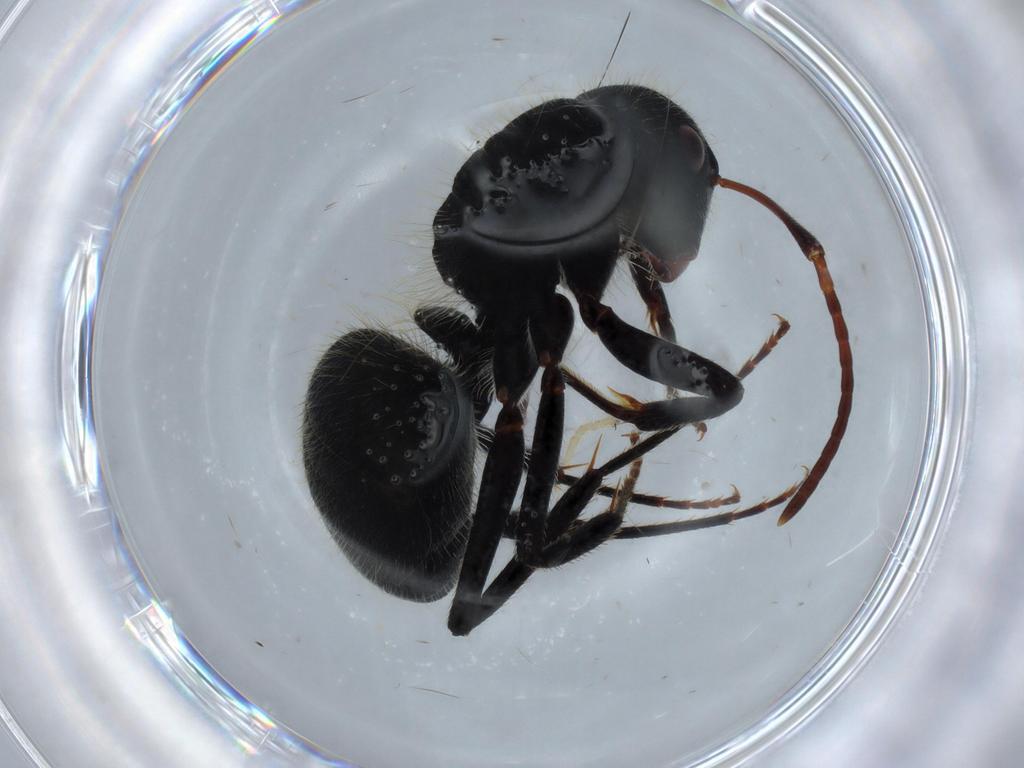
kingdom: Animalia
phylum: Arthropoda
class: Insecta
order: Hymenoptera
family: Formicidae
